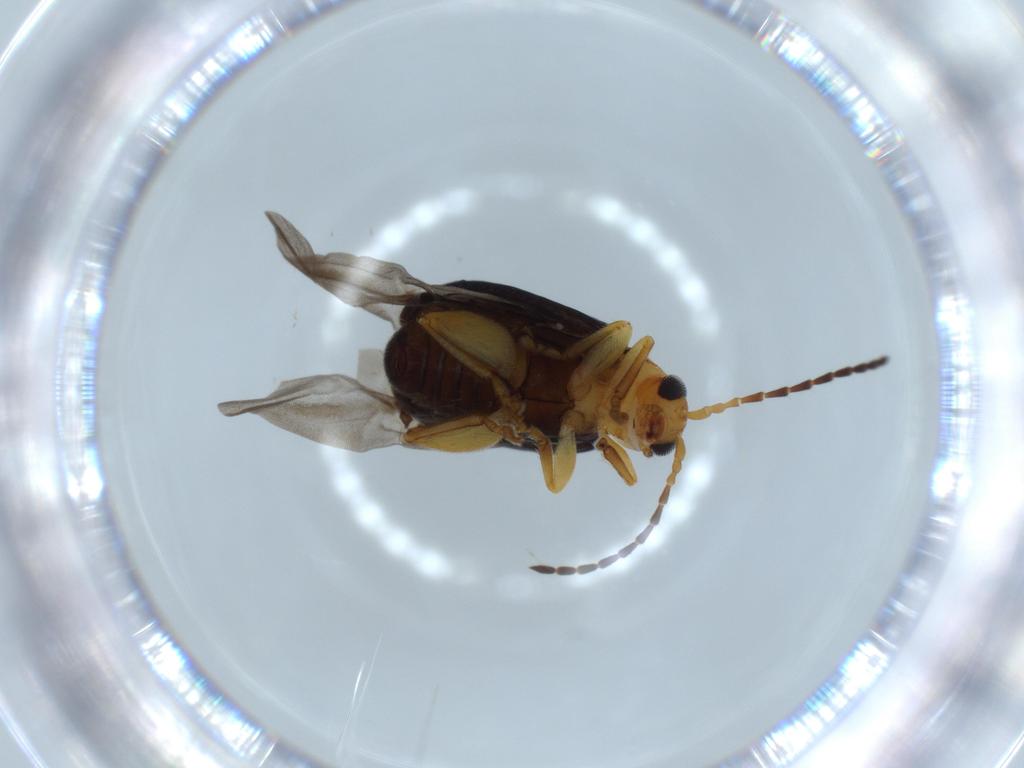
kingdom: Animalia
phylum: Arthropoda
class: Insecta
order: Coleoptera
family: Chrysomelidae
